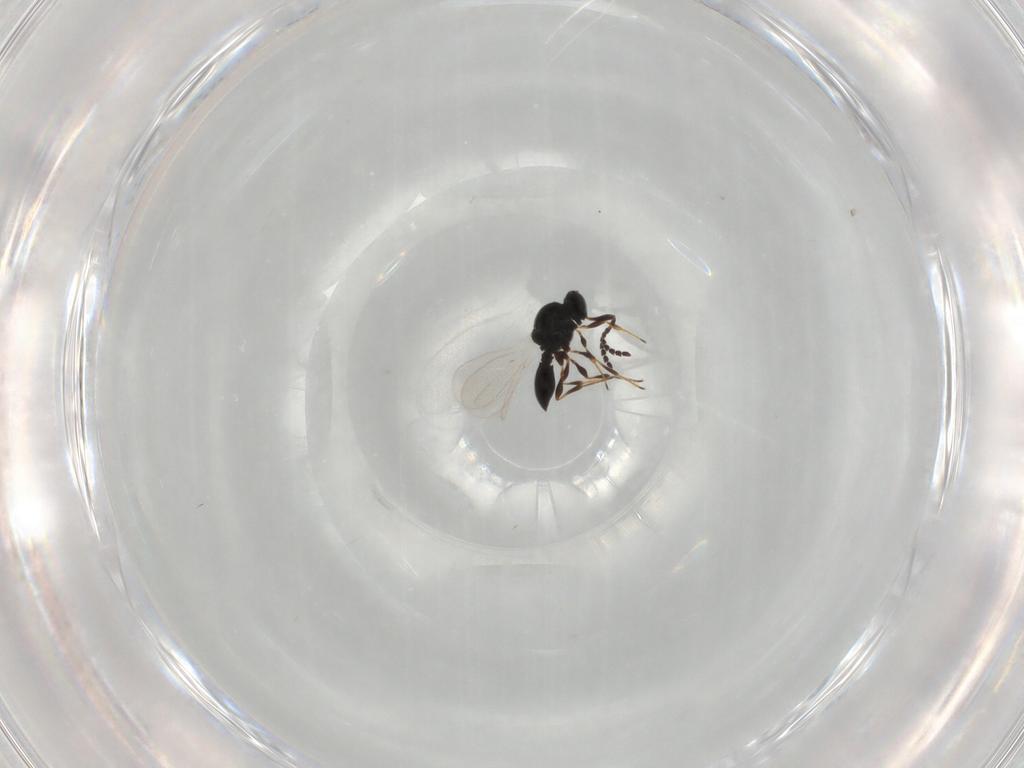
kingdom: Animalia
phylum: Arthropoda
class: Insecta
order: Hymenoptera
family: Platygastridae
